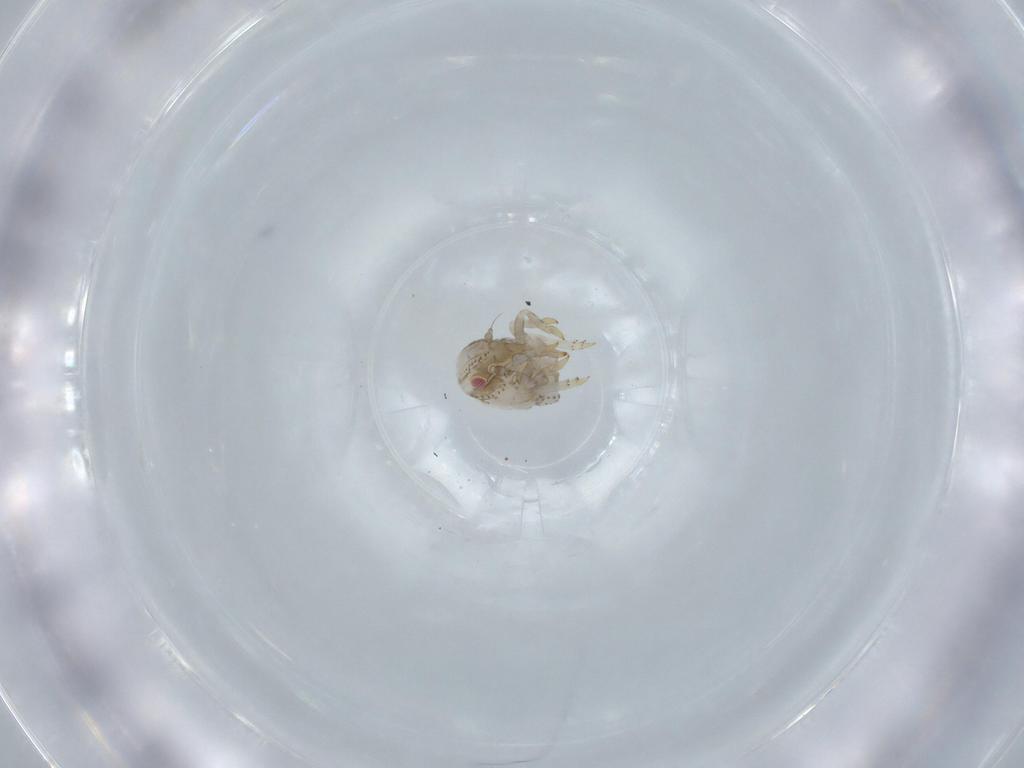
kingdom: Animalia
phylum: Arthropoda
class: Insecta
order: Hemiptera
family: Acanaloniidae
